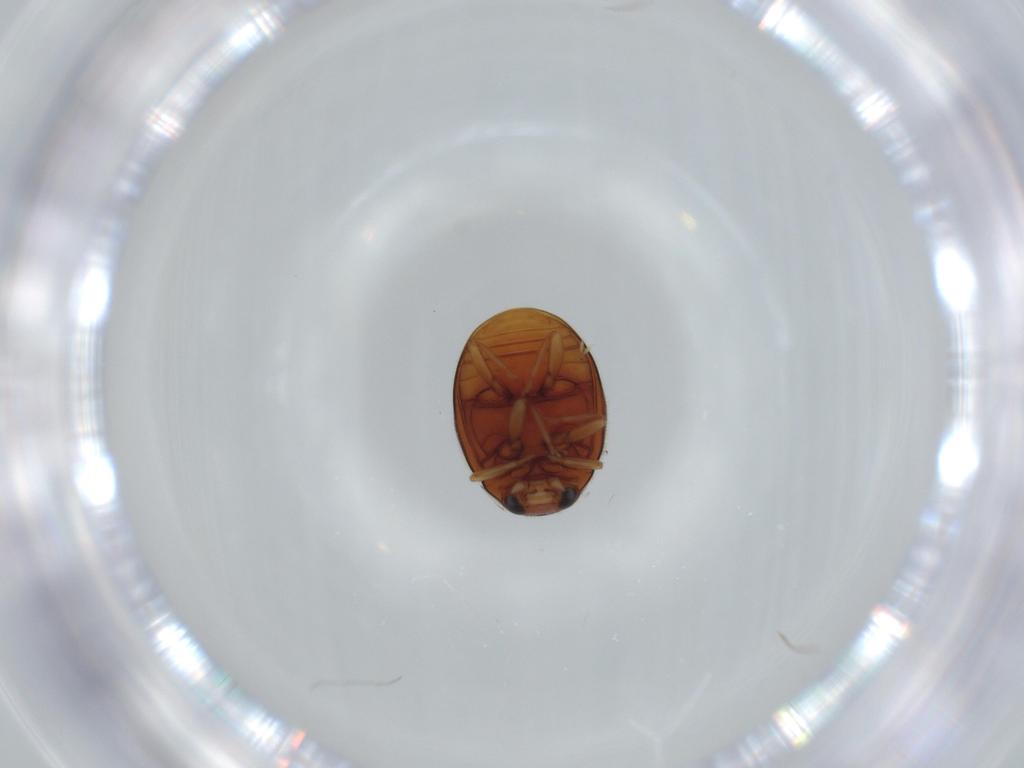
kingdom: Animalia
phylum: Arthropoda
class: Insecta
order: Coleoptera
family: Coccinellidae
